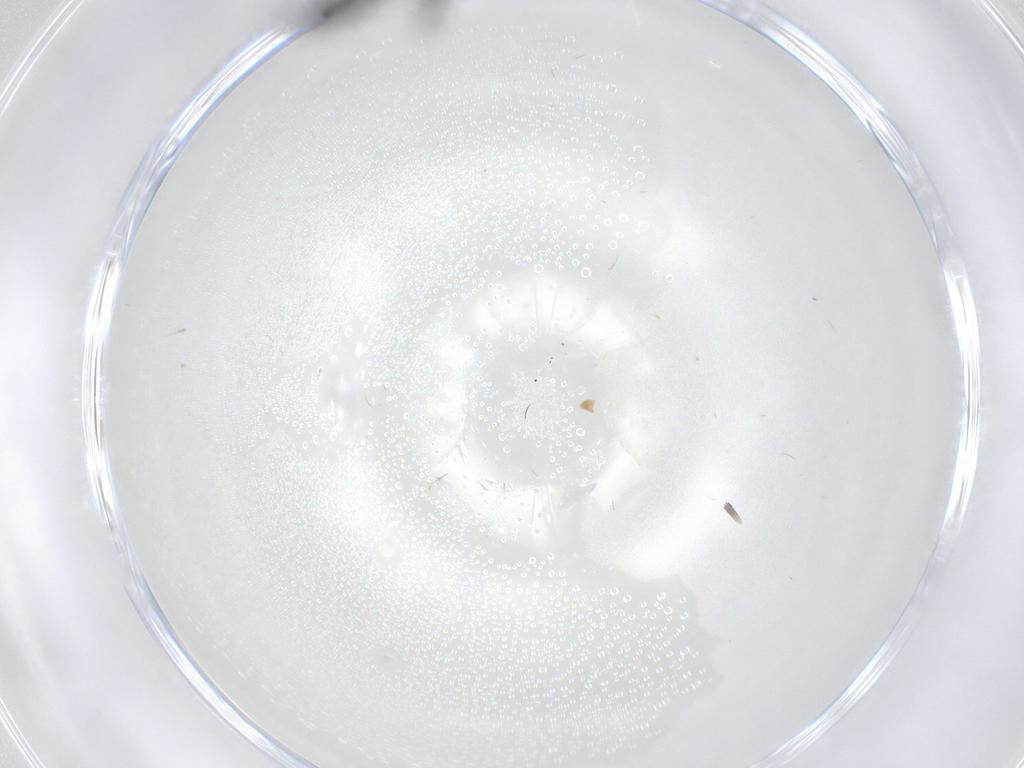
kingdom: Animalia
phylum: Arthropoda
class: Insecta
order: Diptera
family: Sciaridae
